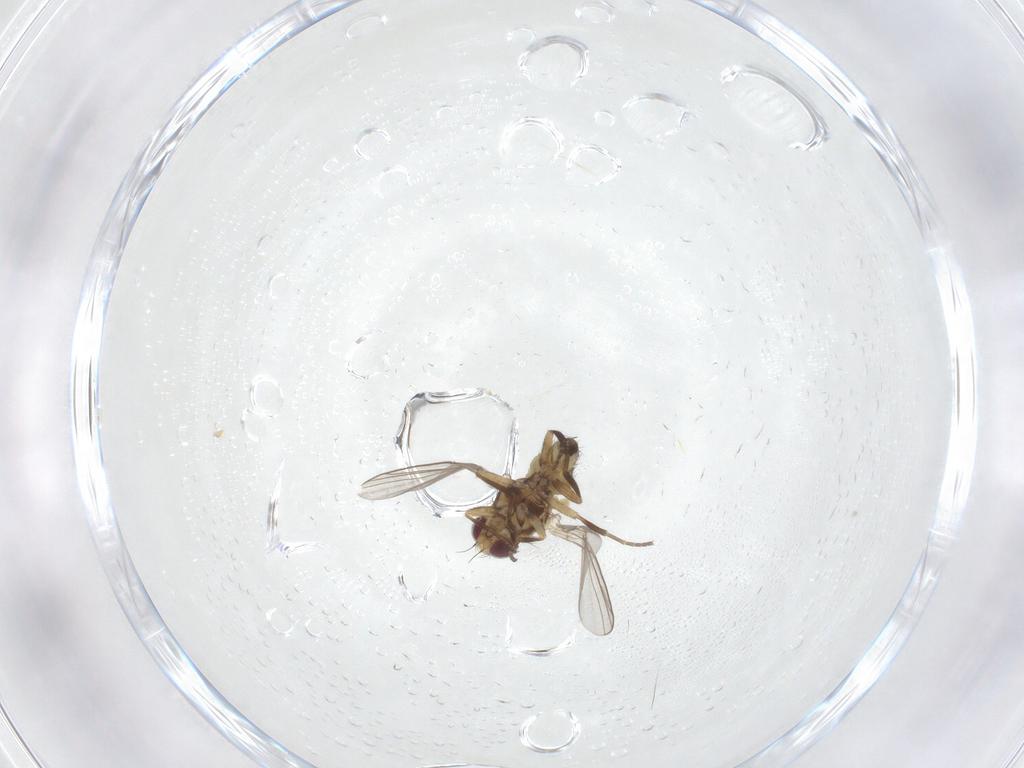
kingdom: Animalia
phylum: Arthropoda
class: Insecta
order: Diptera
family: Agromyzidae
